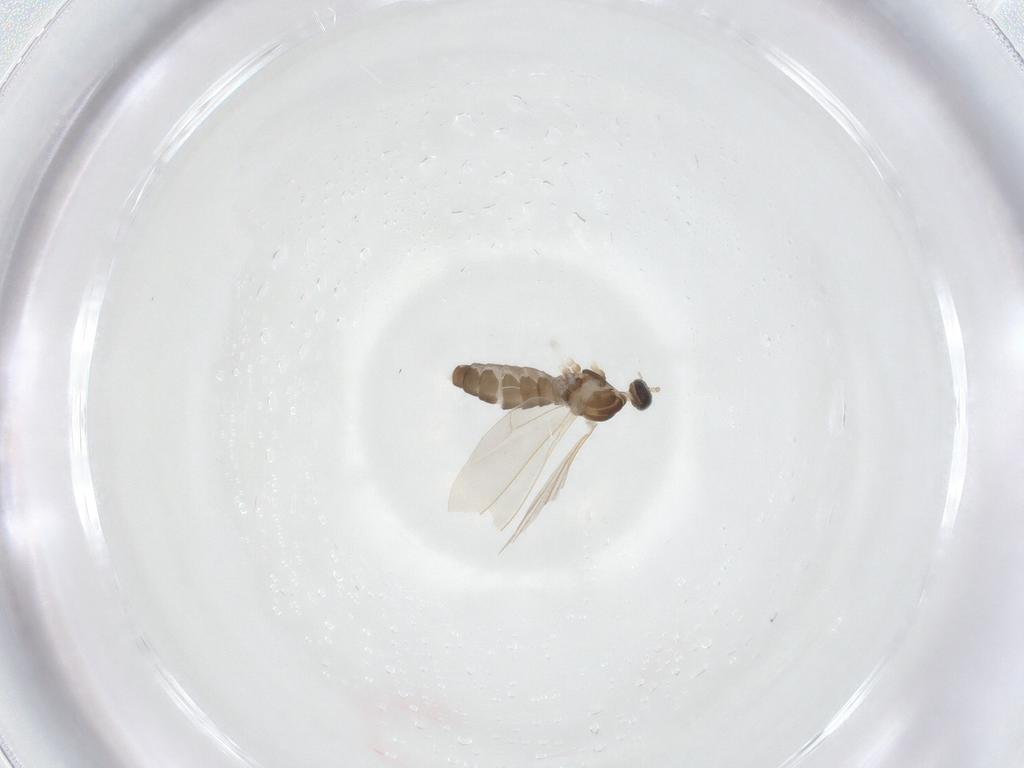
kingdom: Animalia
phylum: Arthropoda
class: Insecta
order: Diptera
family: Cecidomyiidae
